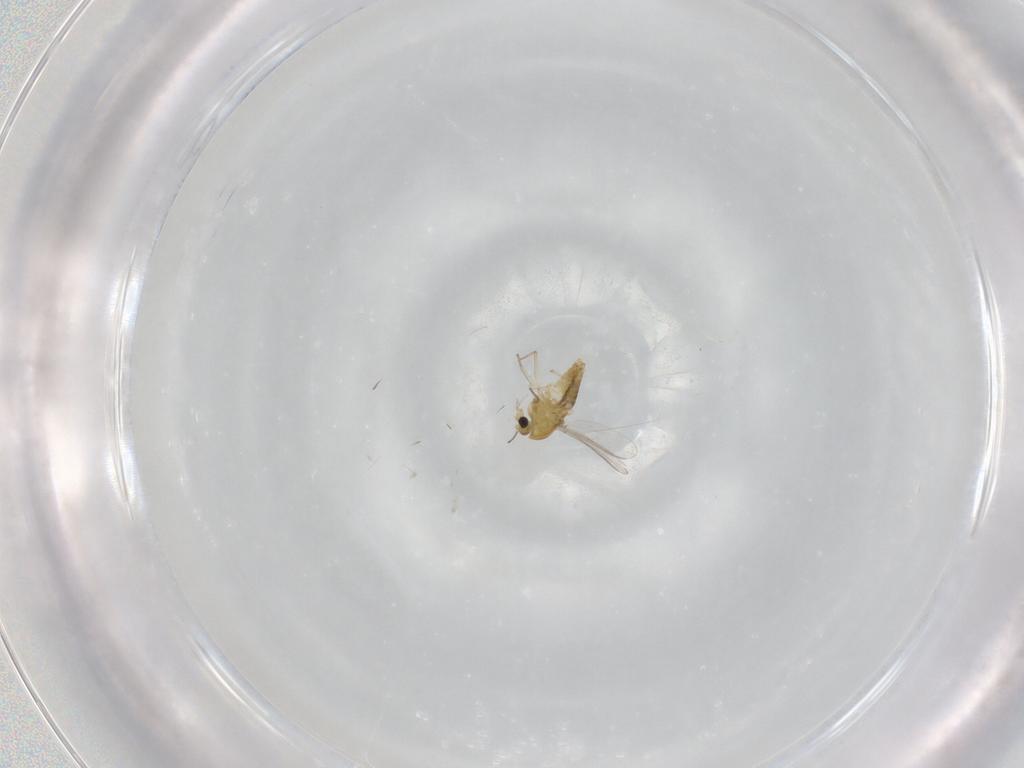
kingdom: Animalia
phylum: Arthropoda
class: Insecta
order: Diptera
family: Chironomidae
